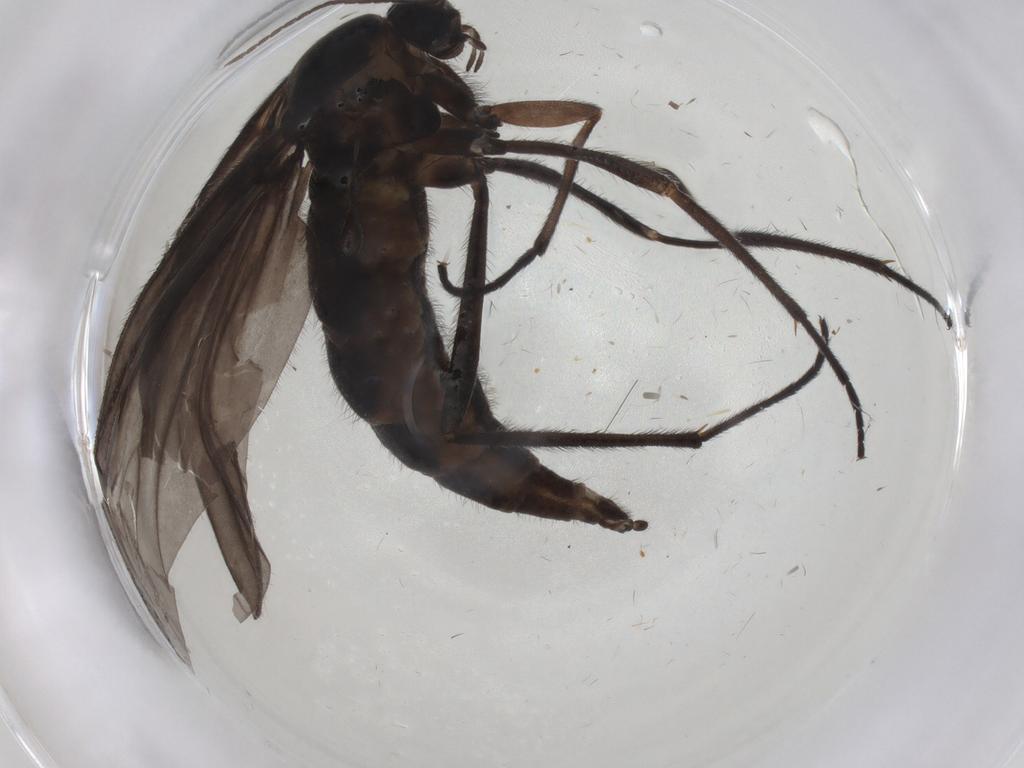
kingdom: Animalia
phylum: Arthropoda
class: Insecta
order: Diptera
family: Dolichopodidae
